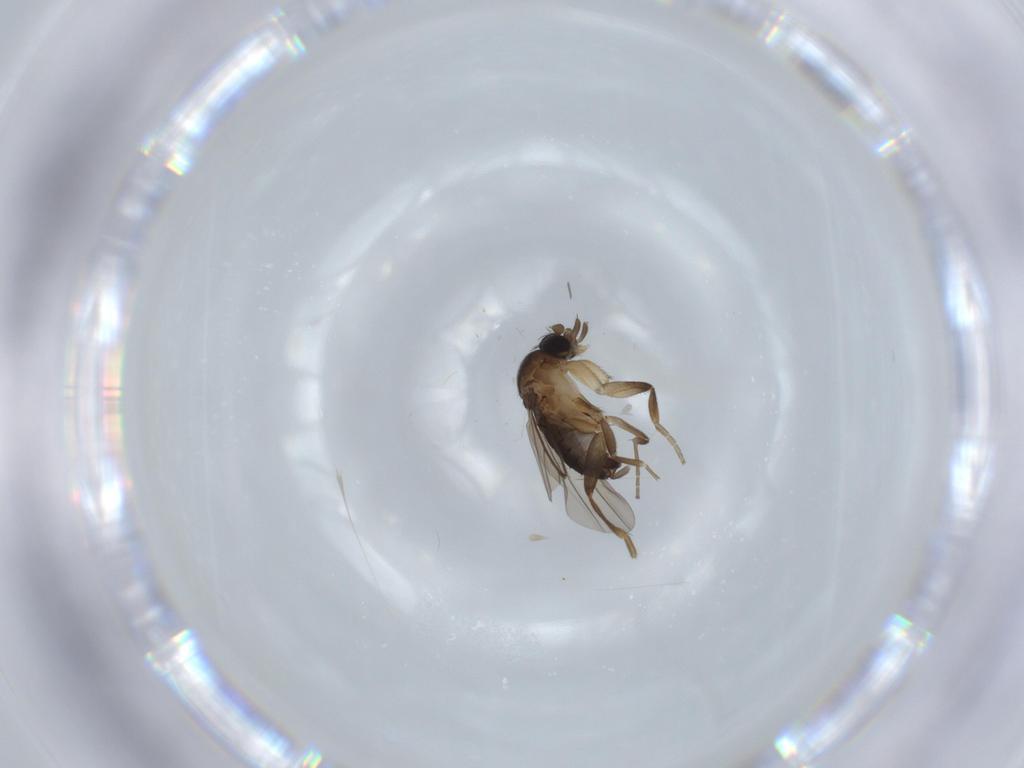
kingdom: Animalia
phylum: Arthropoda
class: Insecta
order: Diptera
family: Phoridae
